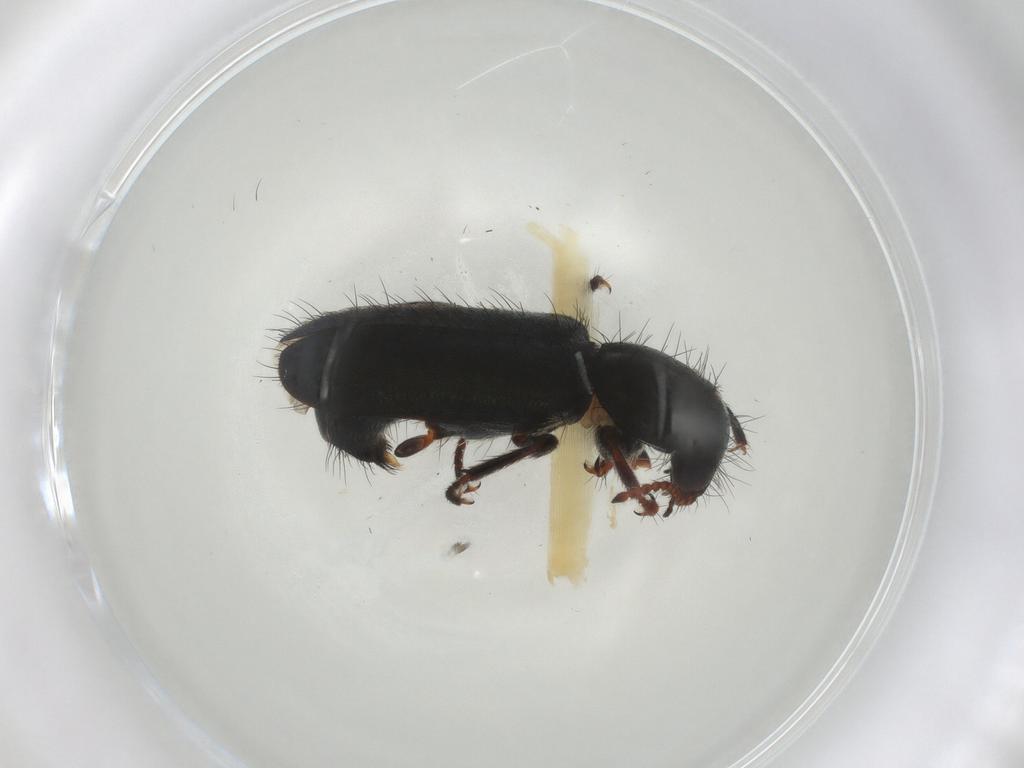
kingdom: Animalia
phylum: Arthropoda
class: Insecta
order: Coleoptera
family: Melyridae
